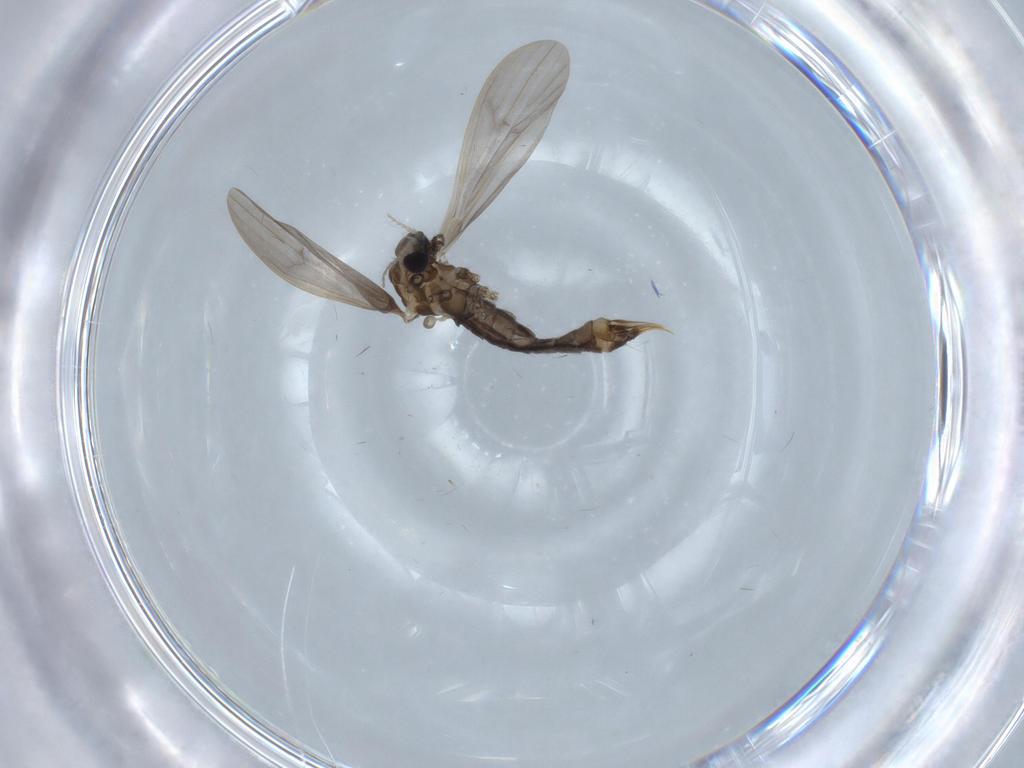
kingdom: Animalia
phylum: Arthropoda
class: Insecta
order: Diptera
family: Limoniidae
